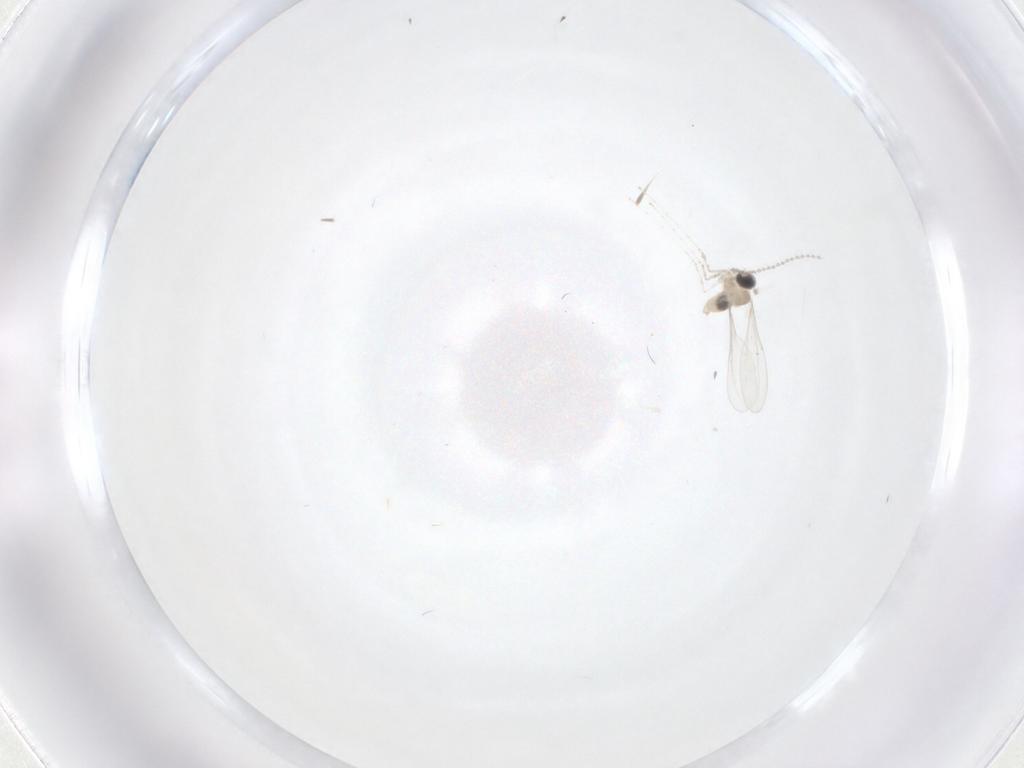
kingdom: Animalia
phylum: Arthropoda
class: Insecta
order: Diptera
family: Cecidomyiidae
